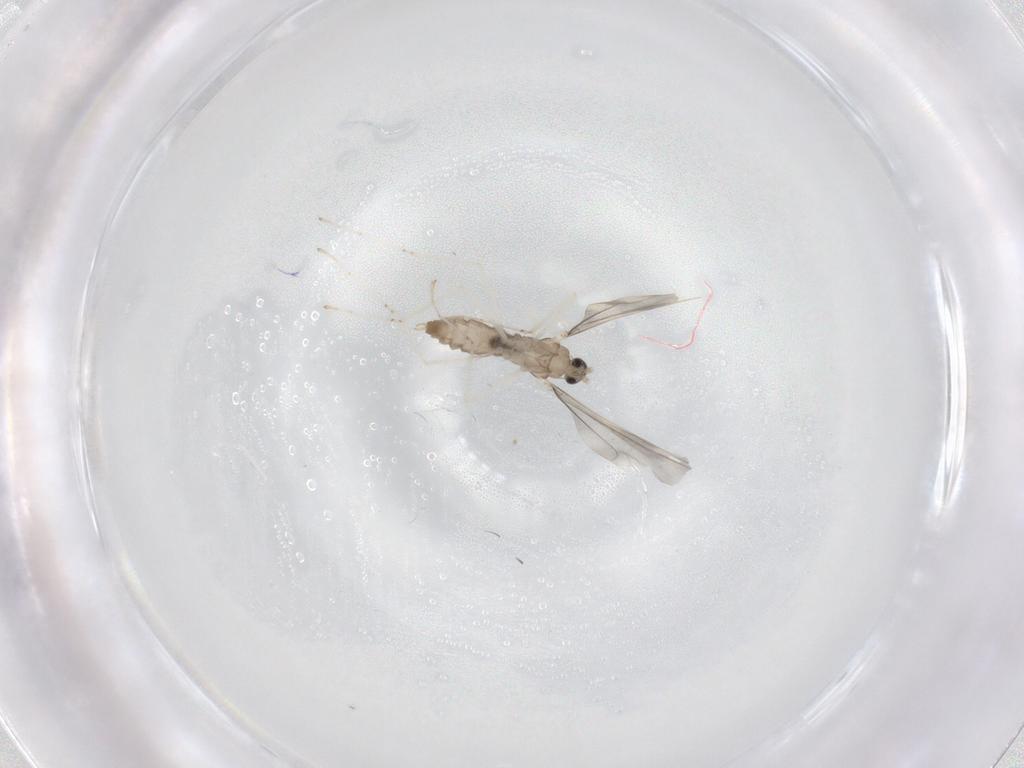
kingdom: Animalia
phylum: Arthropoda
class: Insecta
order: Diptera
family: Cecidomyiidae
